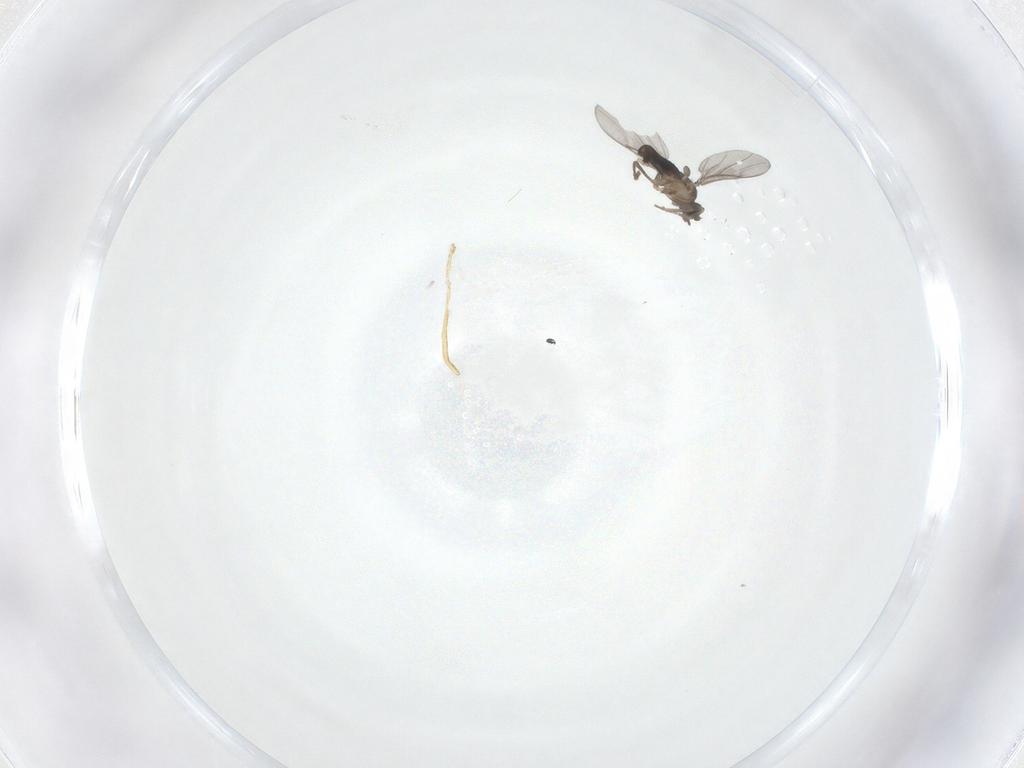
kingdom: Animalia
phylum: Arthropoda
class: Insecta
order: Diptera
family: Phoridae
